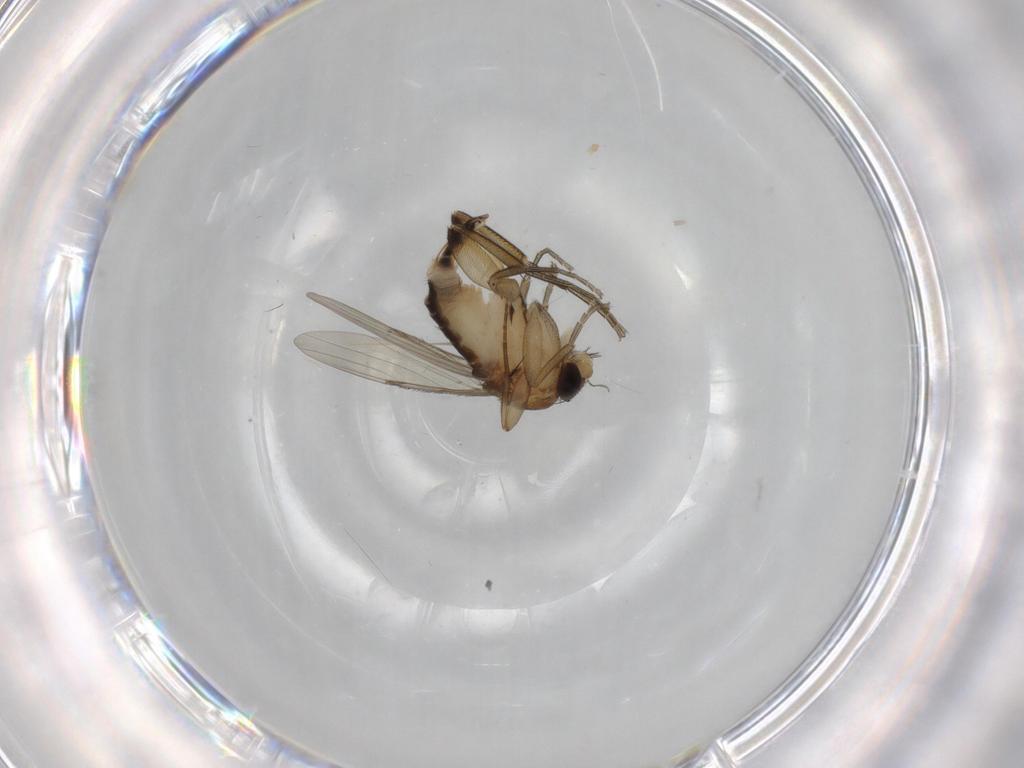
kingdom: Animalia
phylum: Arthropoda
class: Insecta
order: Diptera
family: Phoridae
